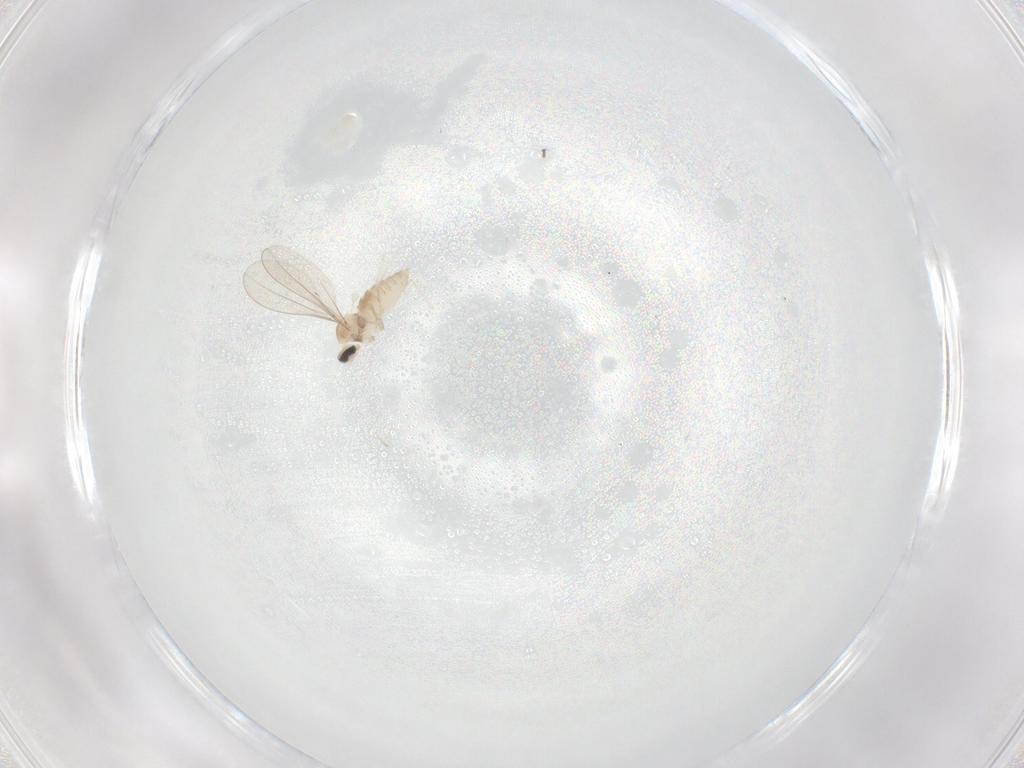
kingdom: Animalia
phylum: Arthropoda
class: Insecta
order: Diptera
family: Cecidomyiidae
